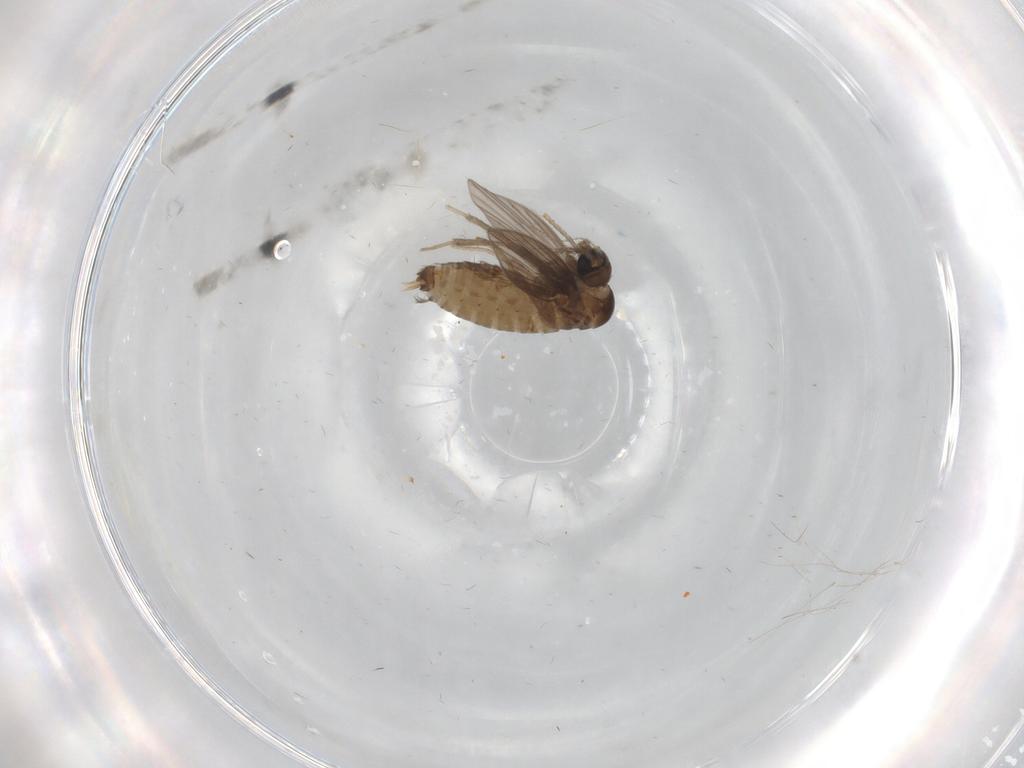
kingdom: Animalia
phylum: Arthropoda
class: Insecta
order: Diptera
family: Psychodidae
